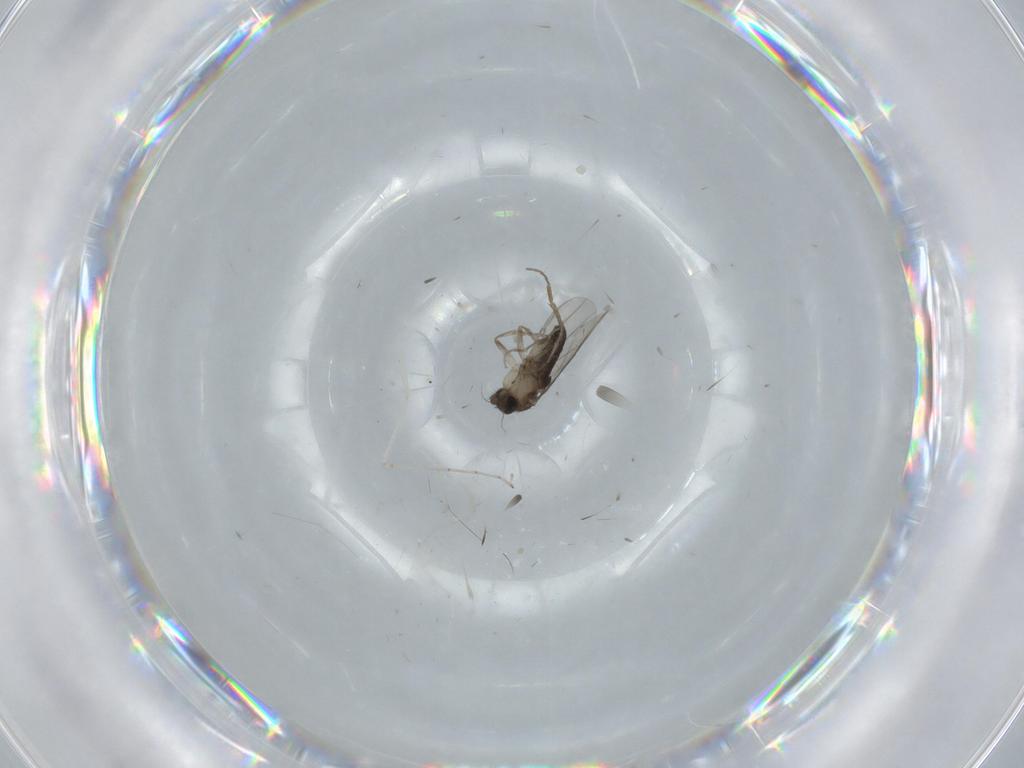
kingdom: Animalia
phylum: Arthropoda
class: Insecta
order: Diptera
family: Phoridae
